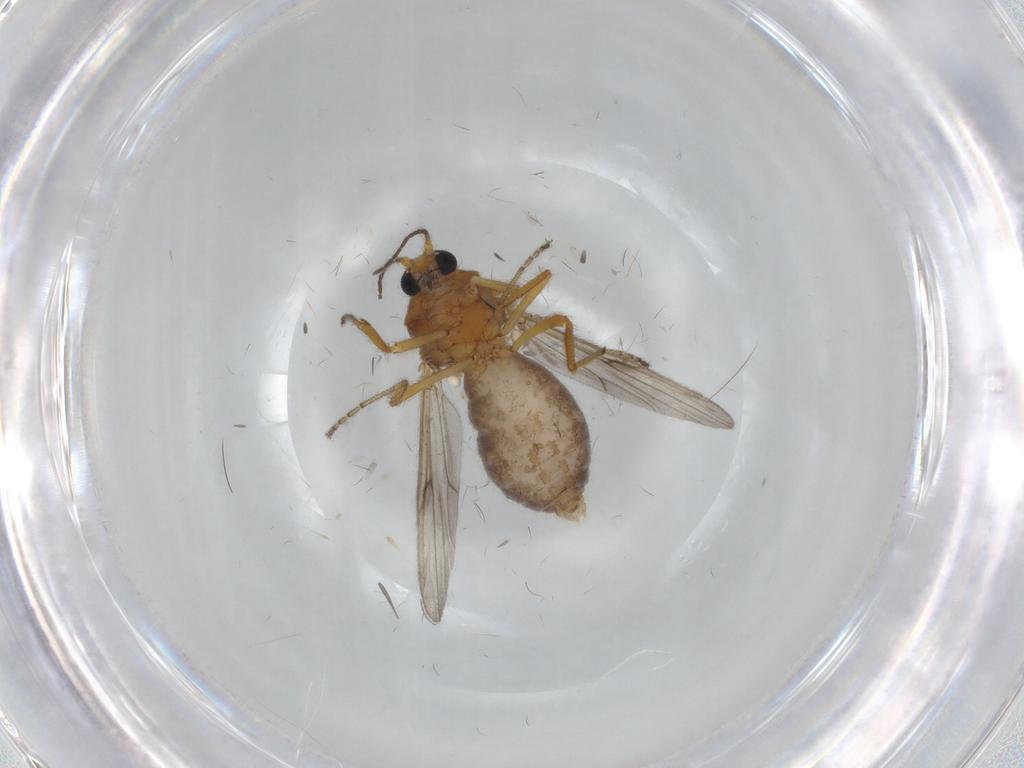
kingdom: Animalia
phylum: Arthropoda
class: Insecta
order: Diptera
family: Ceratopogonidae
